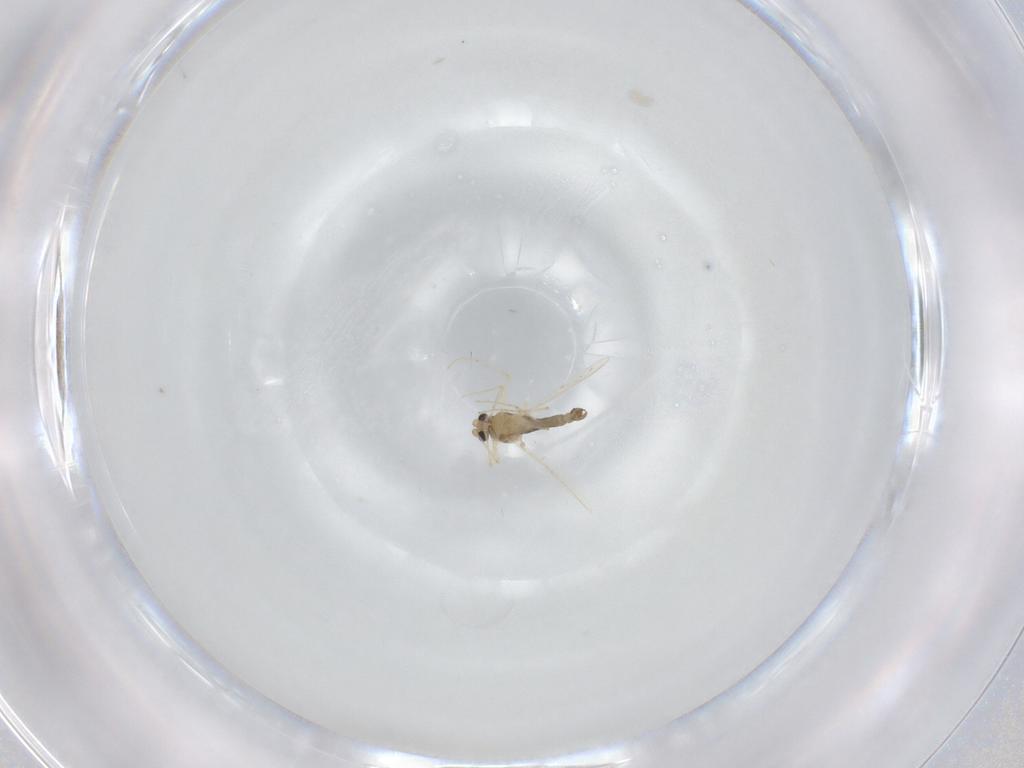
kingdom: Animalia
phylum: Arthropoda
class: Insecta
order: Diptera
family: Chironomidae
